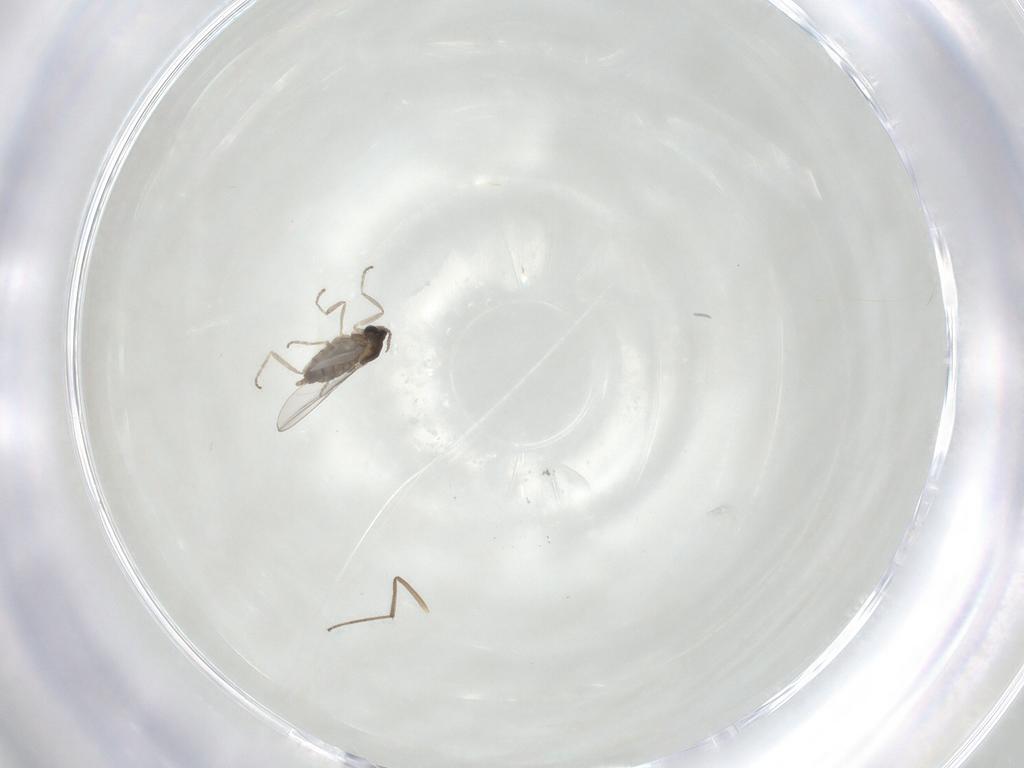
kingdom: Animalia
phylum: Arthropoda
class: Insecta
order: Diptera
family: Cecidomyiidae
